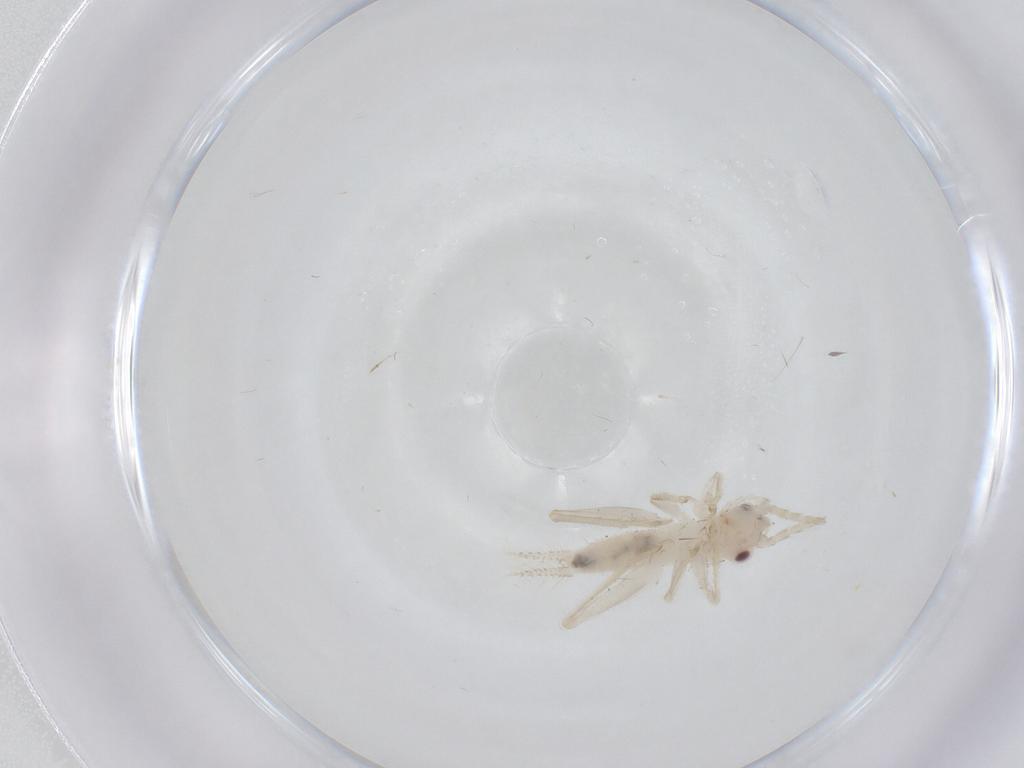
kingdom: Animalia
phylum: Arthropoda
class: Insecta
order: Orthoptera
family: Trigonidiidae
